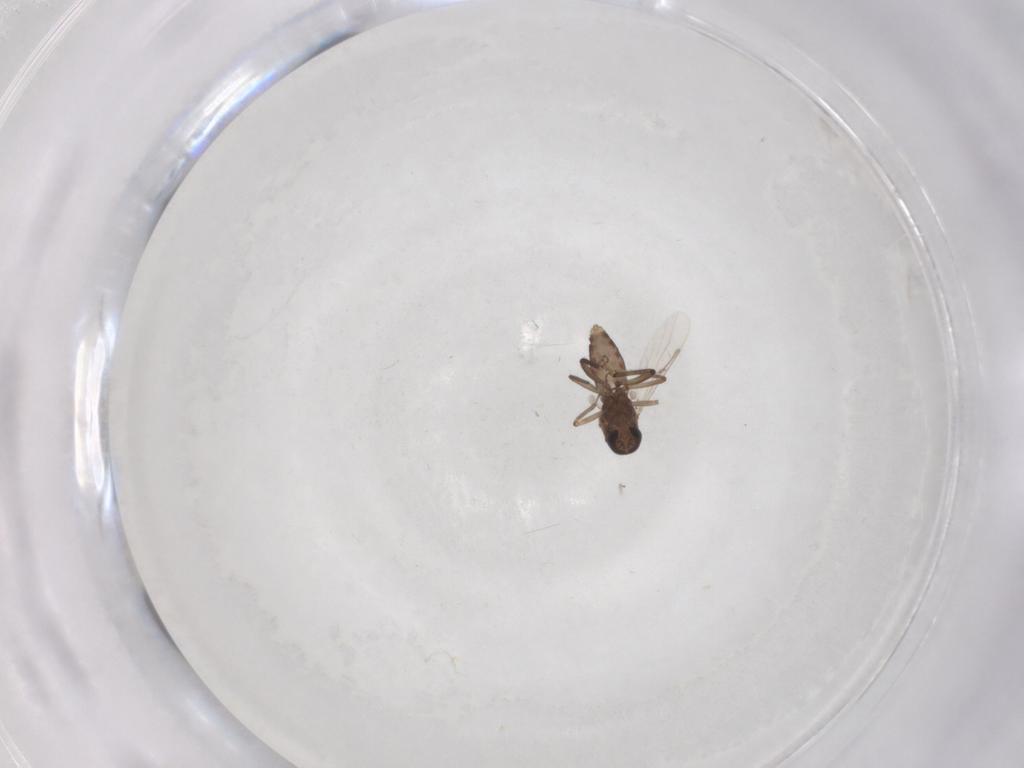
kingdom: Animalia
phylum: Arthropoda
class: Insecta
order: Diptera
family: Ceratopogonidae
